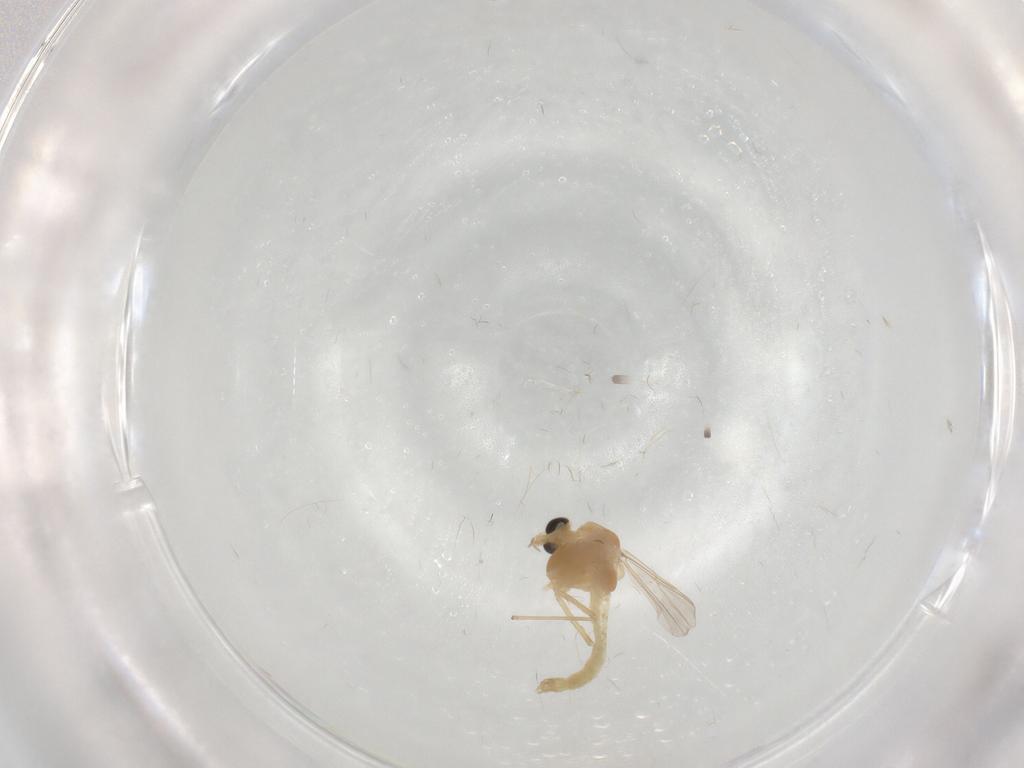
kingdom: Animalia
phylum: Arthropoda
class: Insecta
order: Diptera
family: Chironomidae
